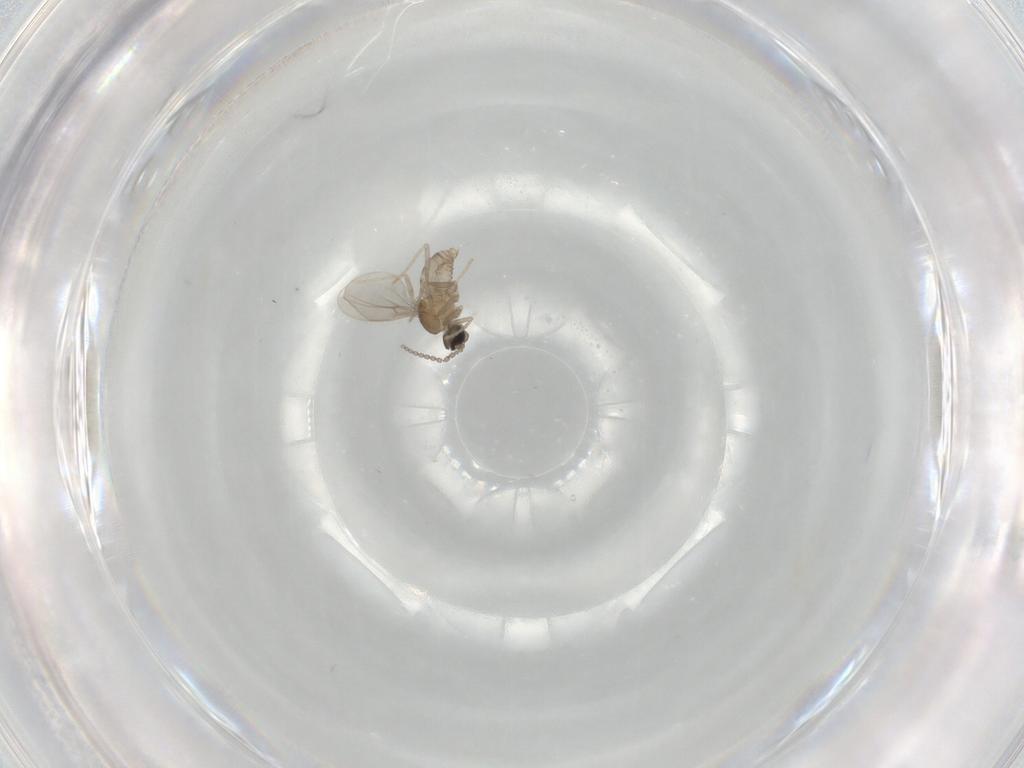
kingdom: Animalia
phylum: Arthropoda
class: Insecta
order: Diptera
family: Cecidomyiidae
